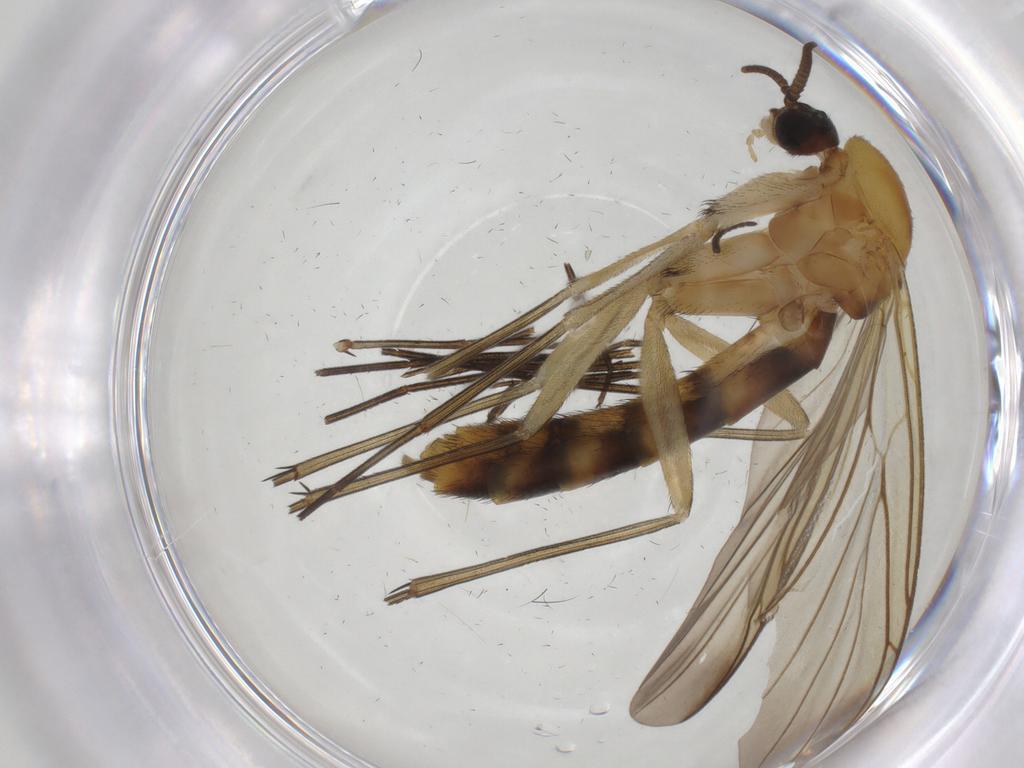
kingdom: Animalia
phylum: Arthropoda
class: Insecta
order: Diptera
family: Keroplatidae
